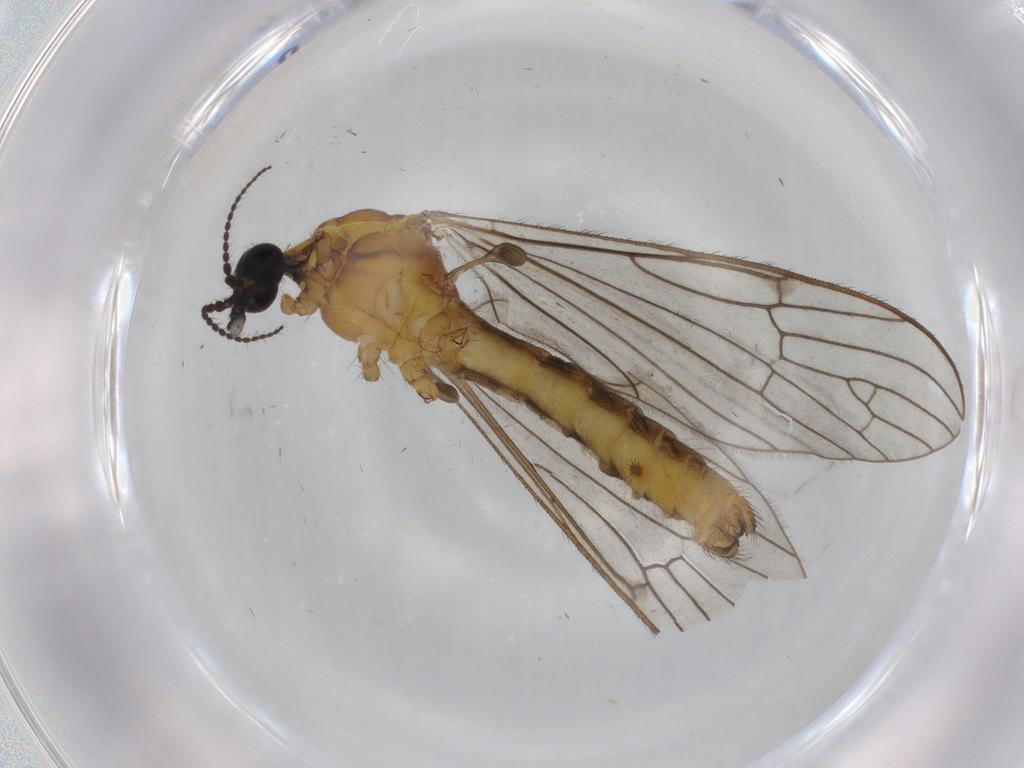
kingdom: Animalia
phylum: Arthropoda
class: Insecta
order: Diptera
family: Limoniidae
